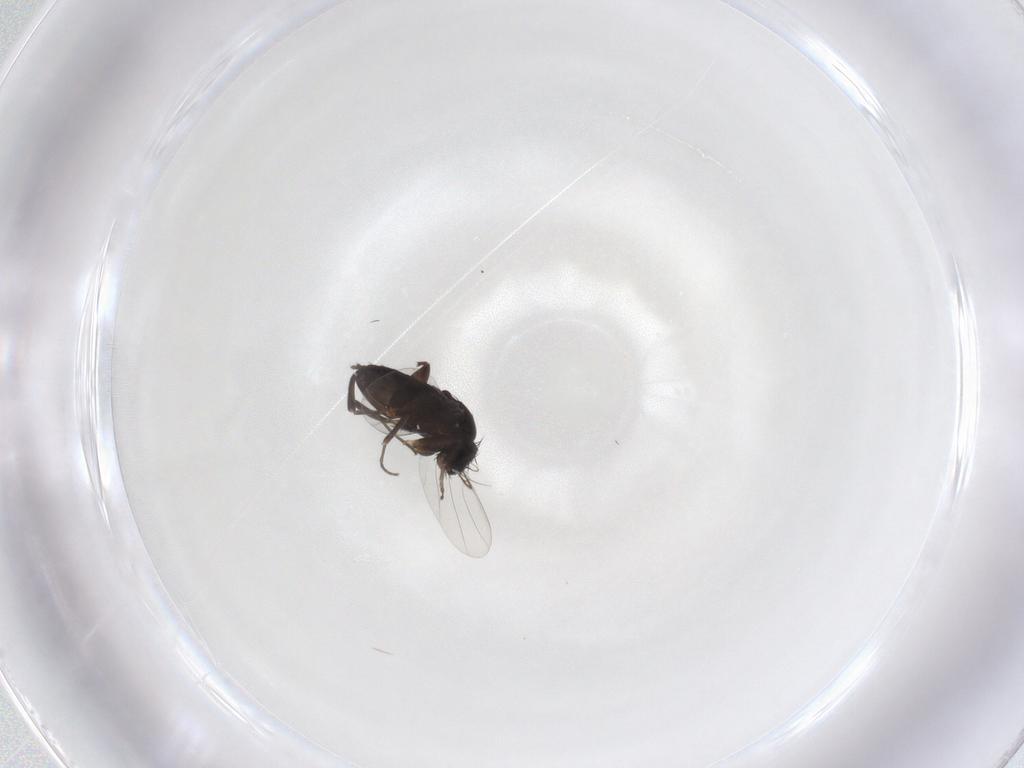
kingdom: Animalia
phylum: Arthropoda
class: Insecta
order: Diptera
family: Phoridae
